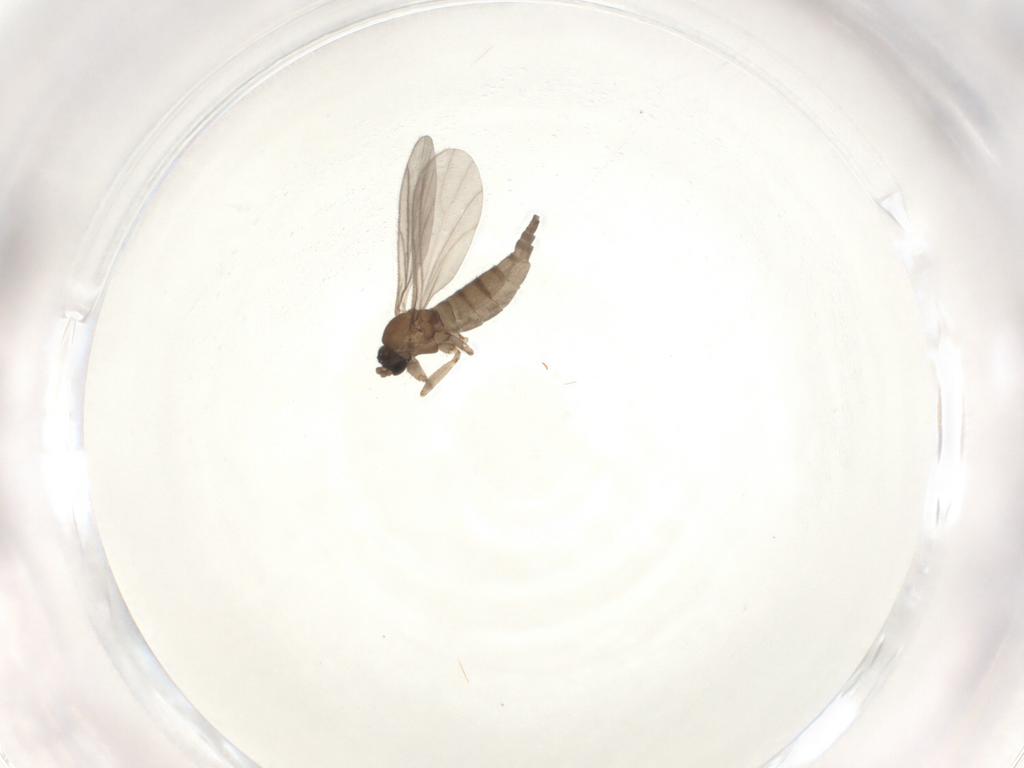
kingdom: Animalia
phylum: Arthropoda
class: Insecta
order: Diptera
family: Sciaridae
